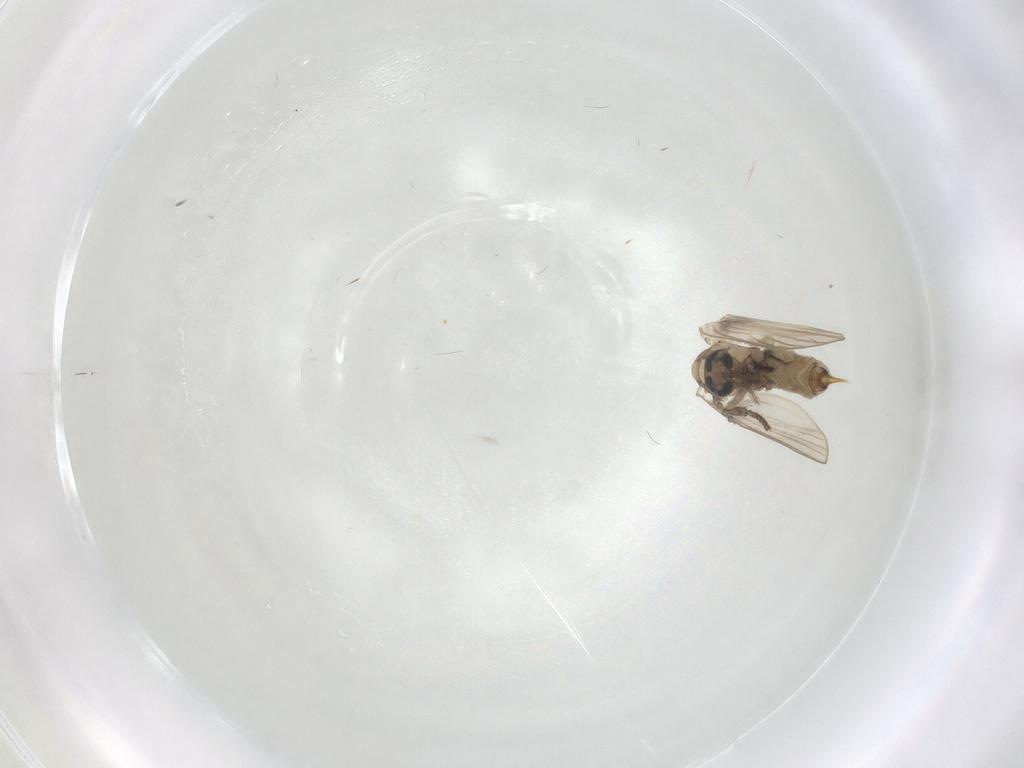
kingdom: Animalia
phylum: Arthropoda
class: Insecta
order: Diptera
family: Psychodidae
